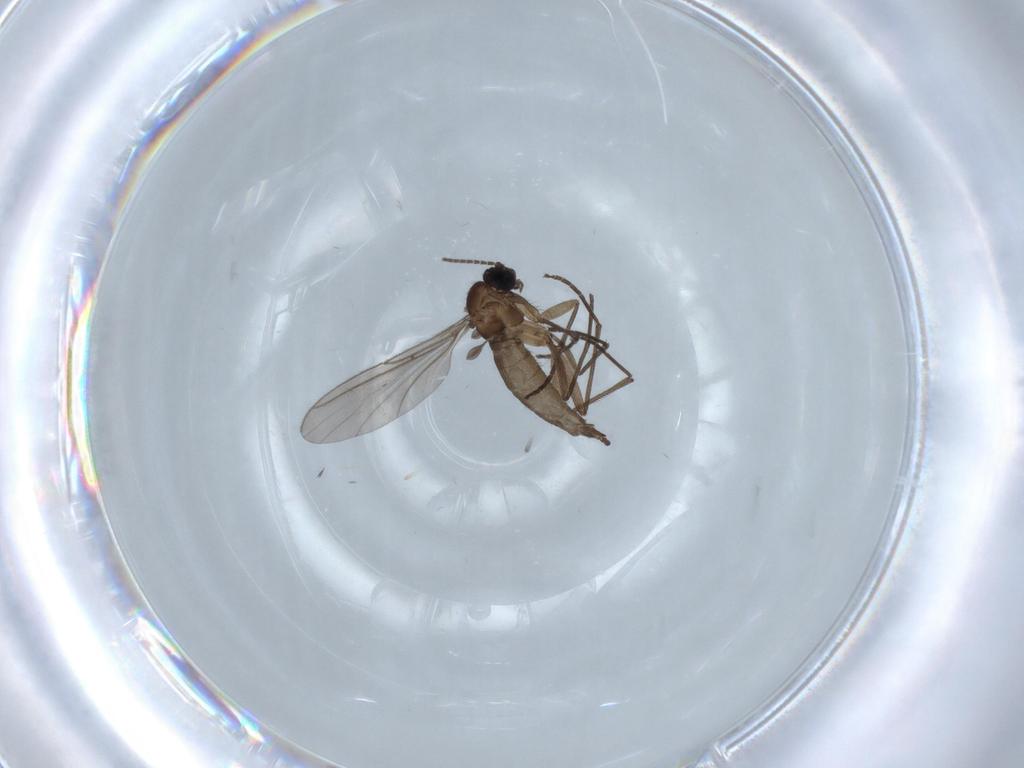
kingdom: Animalia
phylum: Arthropoda
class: Insecta
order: Diptera
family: Sciaridae
